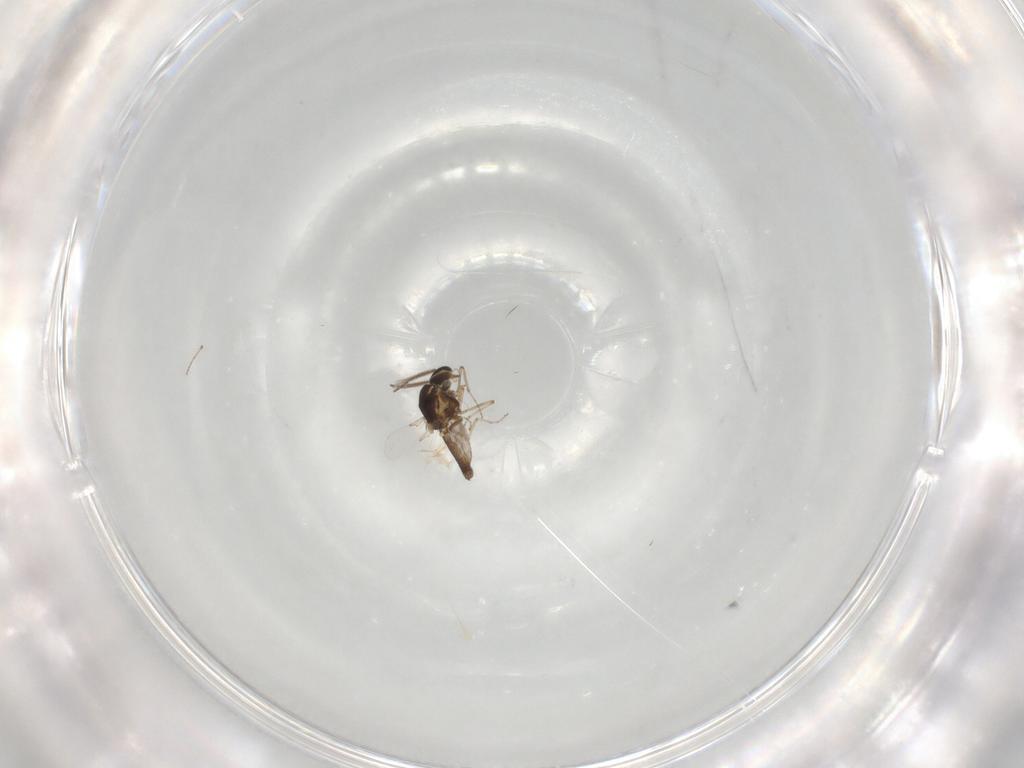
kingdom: Animalia
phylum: Arthropoda
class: Insecta
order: Diptera
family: Ceratopogonidae
